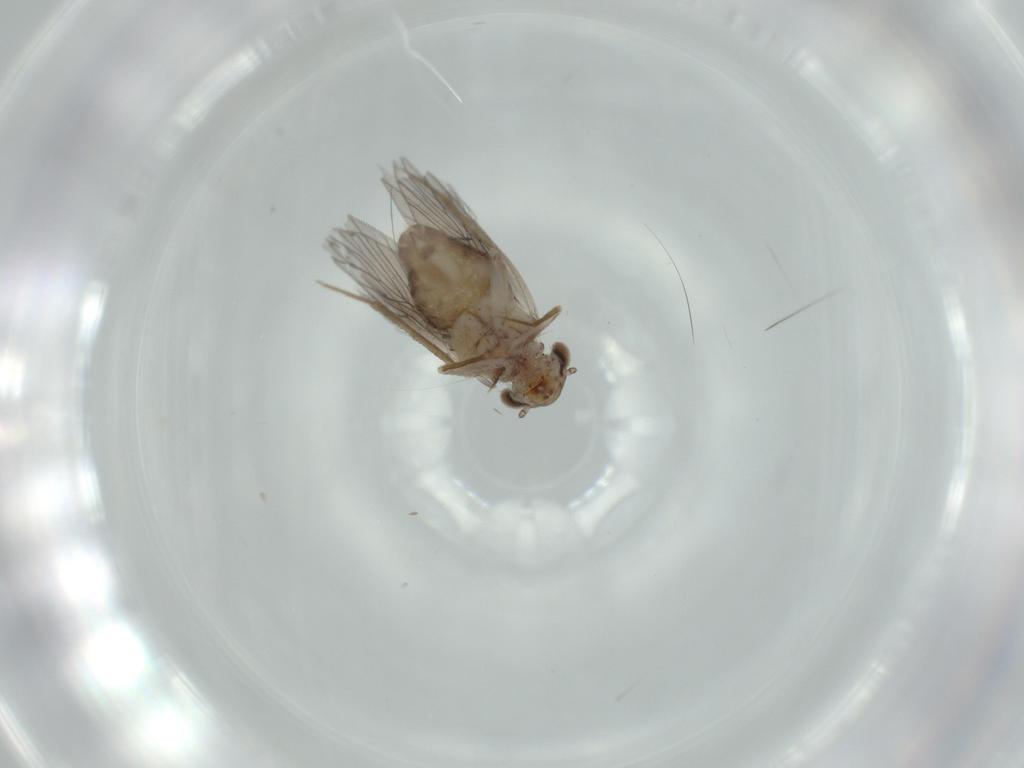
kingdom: Animalia
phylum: Arthropoda
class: Insecta
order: Psocodea
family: Lepidopsocidae
